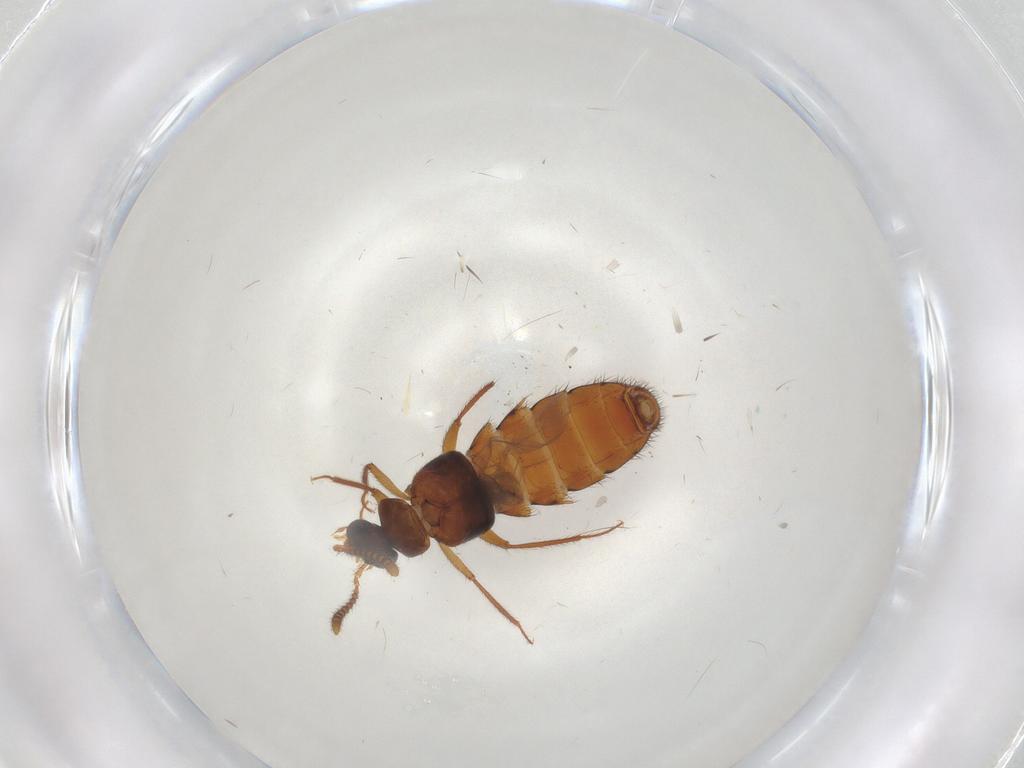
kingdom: Animalia
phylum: Arthropoda
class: Insecta
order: Coleoptera
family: Staphylinidae
